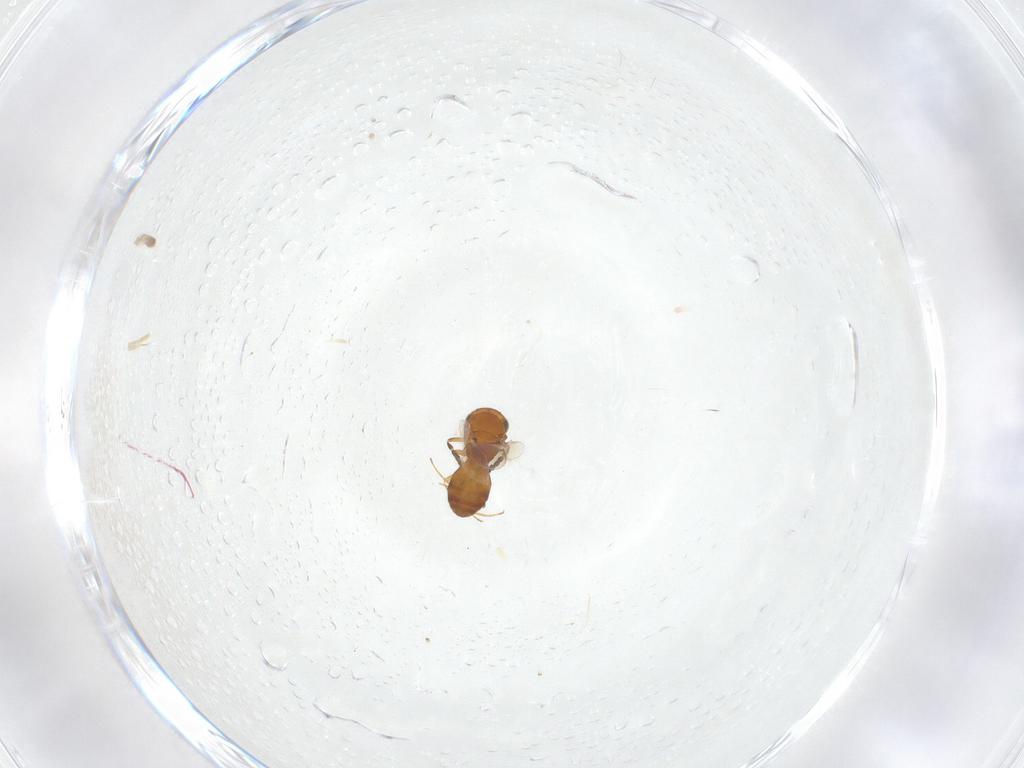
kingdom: Animalia
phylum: Arthropoda
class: Insecta
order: Hymenoptera
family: Scelionidae
